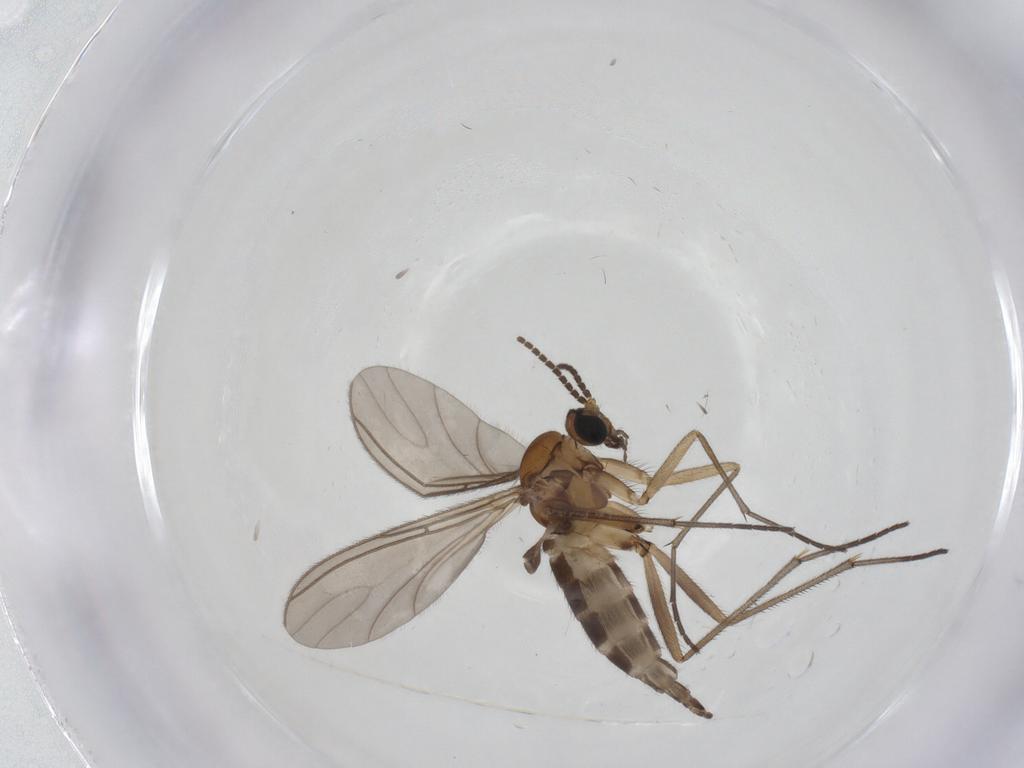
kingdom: Animalia
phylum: Arthropoda
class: Insecta
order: Diptera
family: Sciaridae
